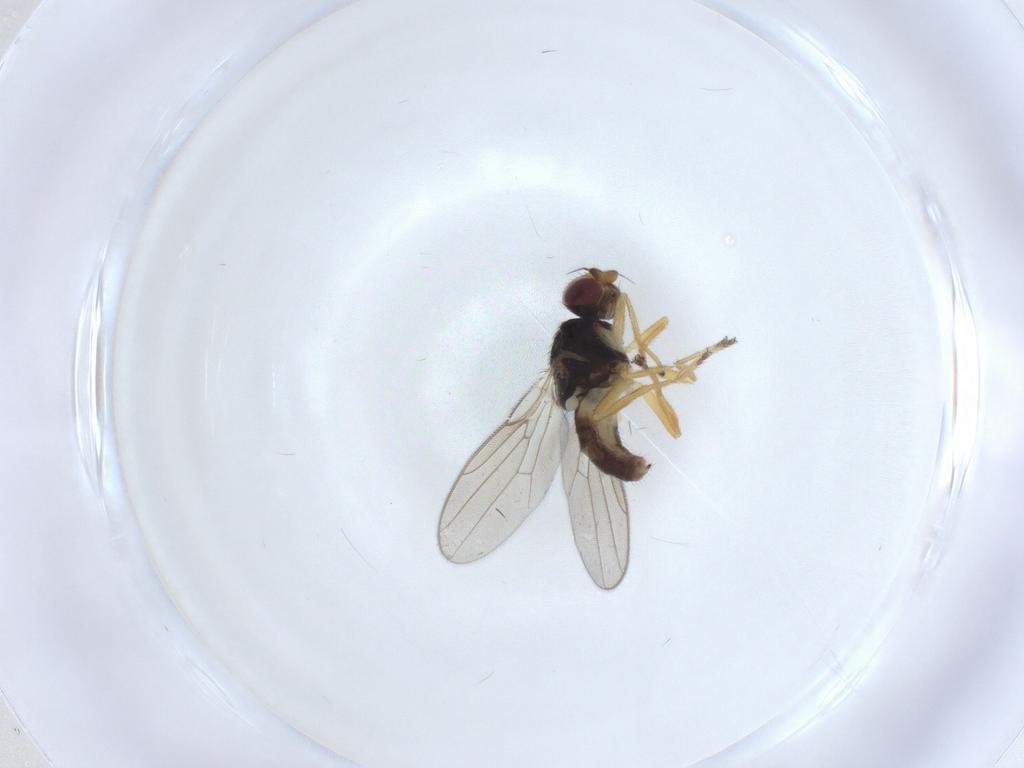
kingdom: Animalia
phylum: Arthropoda
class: Insecta
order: Diptera
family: Chloropidae
